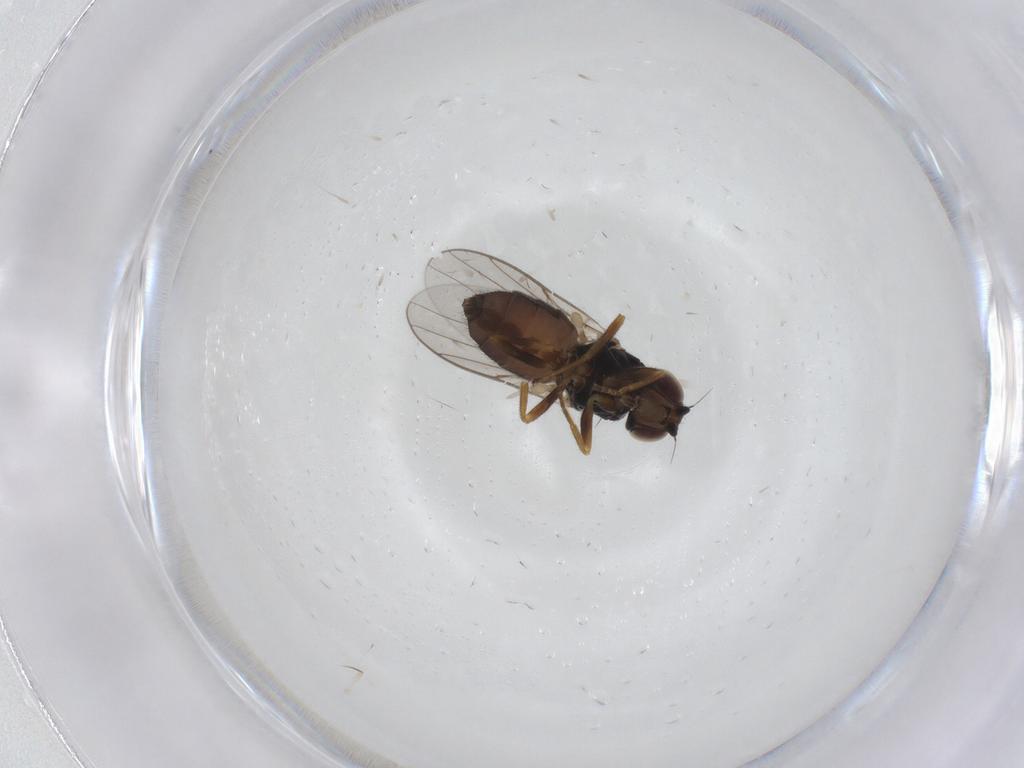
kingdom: Animalia
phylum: Arthropoda
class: Insecta
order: Diptera
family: Chloropidae
